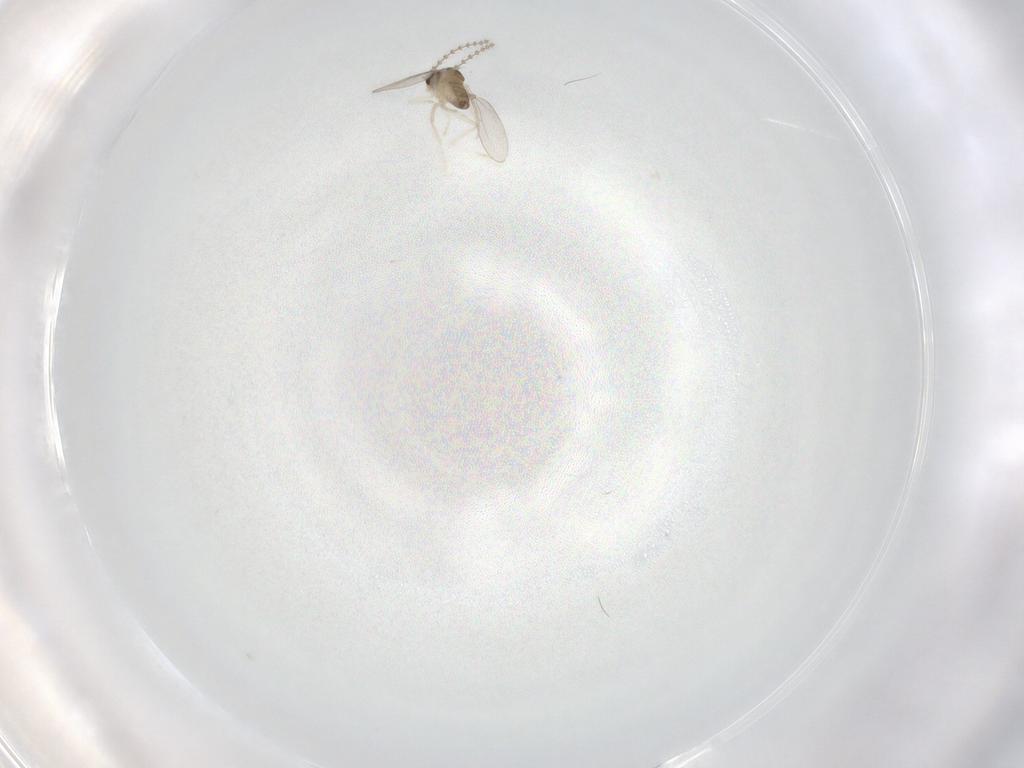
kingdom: Animalia
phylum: Arthropoda
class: Insecta
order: Diptera
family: Cecidomyiidae
